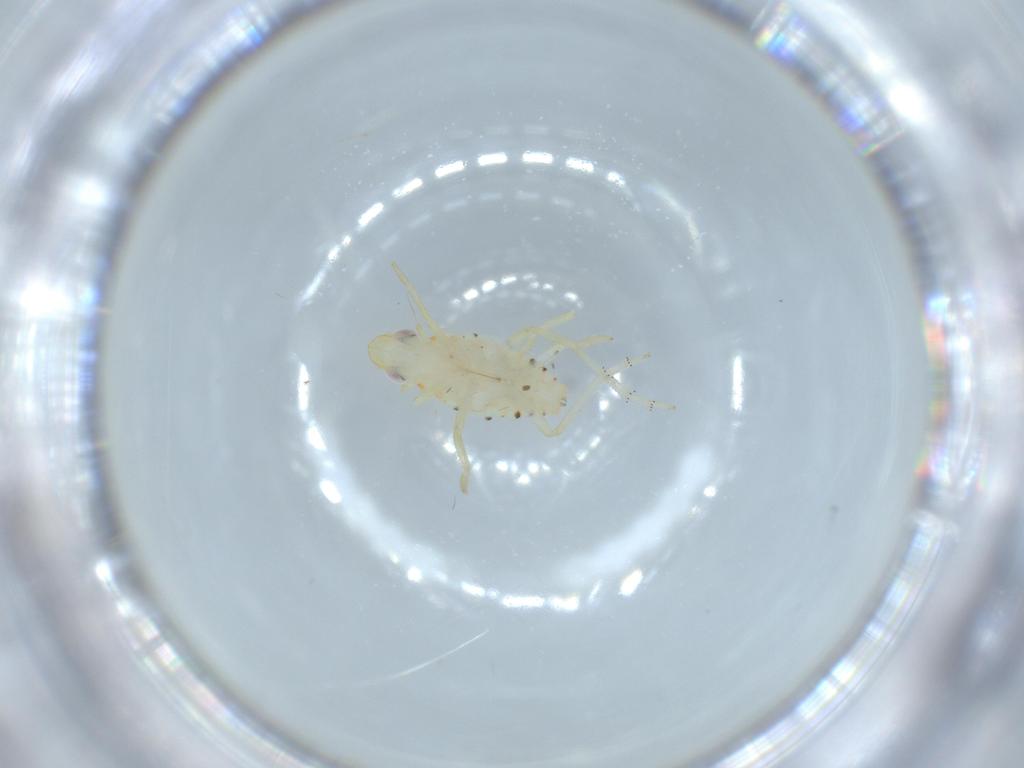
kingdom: Animalia
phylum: Arthropoda
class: Insecta
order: Hemiptera
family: Tropiduchidae
